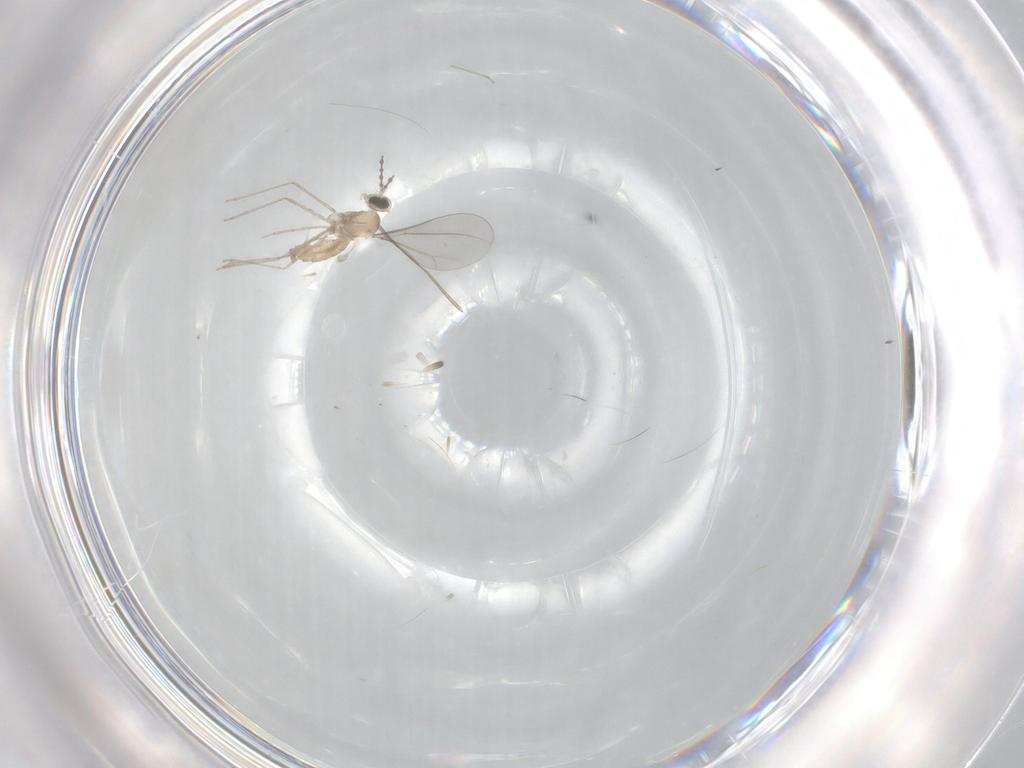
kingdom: Animalia
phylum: Arthropoda
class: Insecta
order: Diptera
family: Cecidomyiidae
